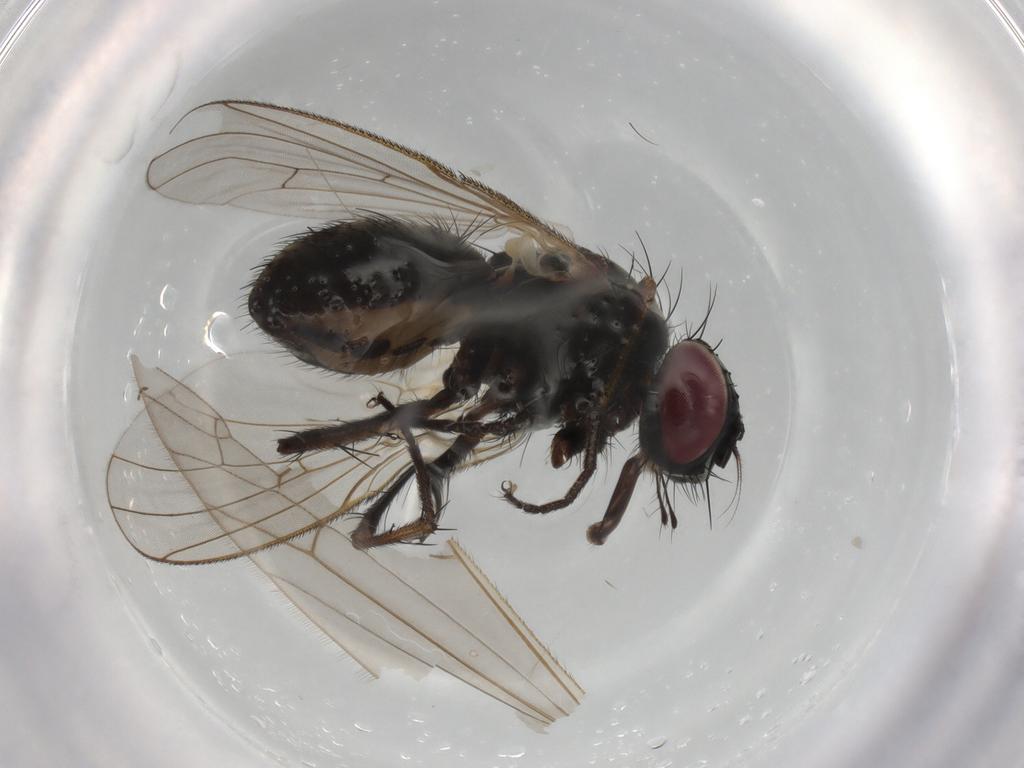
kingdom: Animalia
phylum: Arthropoda
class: Insecta
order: Diptera
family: Muscidae
